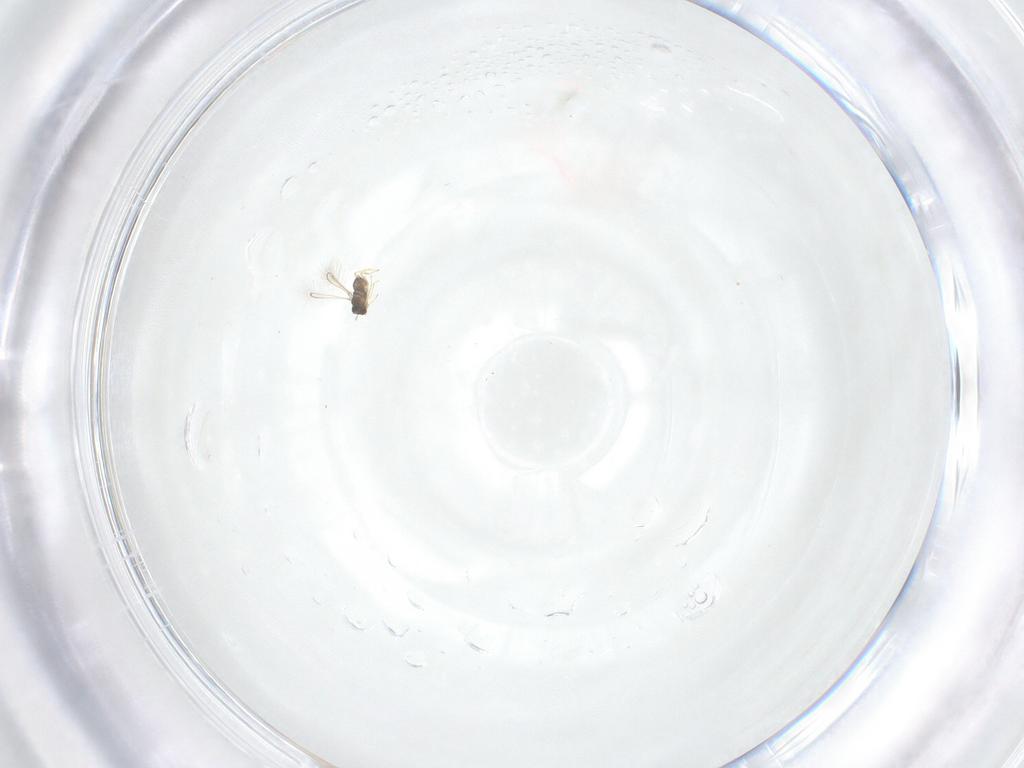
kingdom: Animalia
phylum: Arthropoda
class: Insecta
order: Hymenoptera
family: Mymaridae
